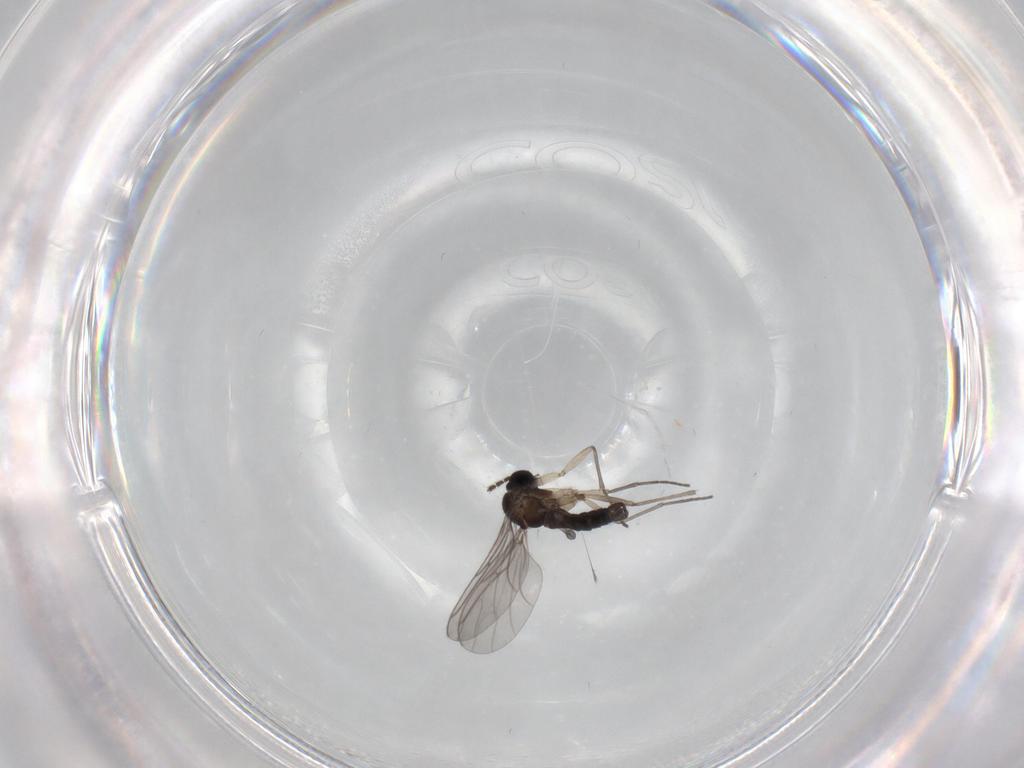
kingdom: Animalia
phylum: Arthropoda
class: Insecta
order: Diptera
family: Sciaridae
